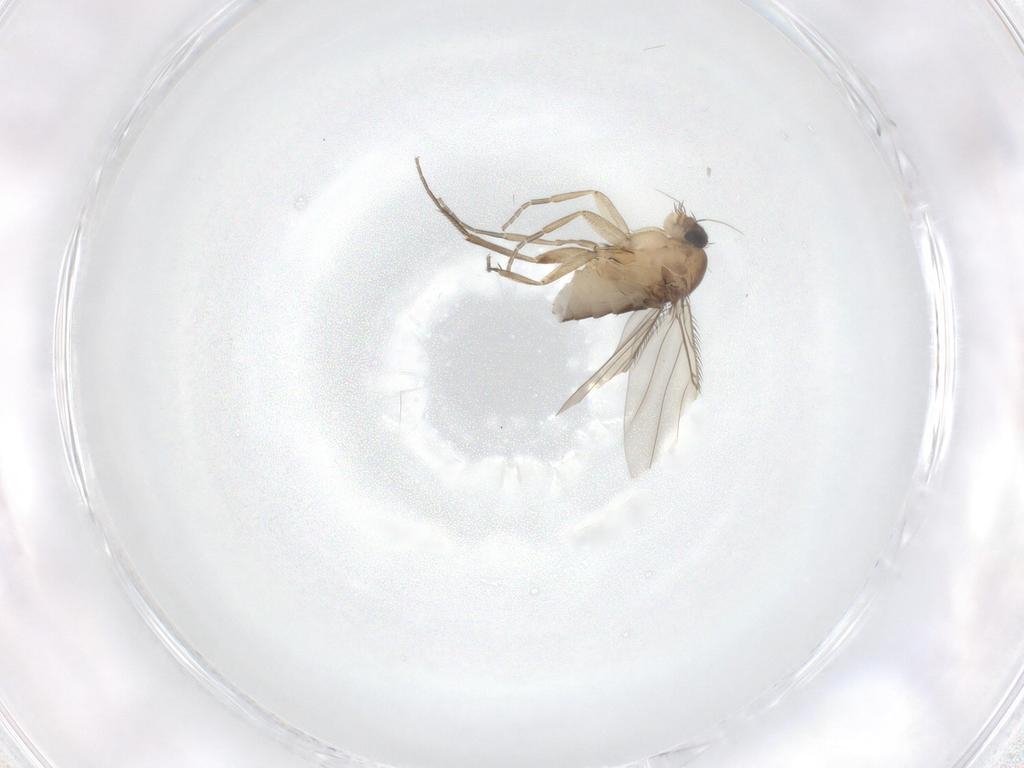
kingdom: Animalia
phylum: Arthropoda
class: Insecta
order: Diptera
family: Phoridae
